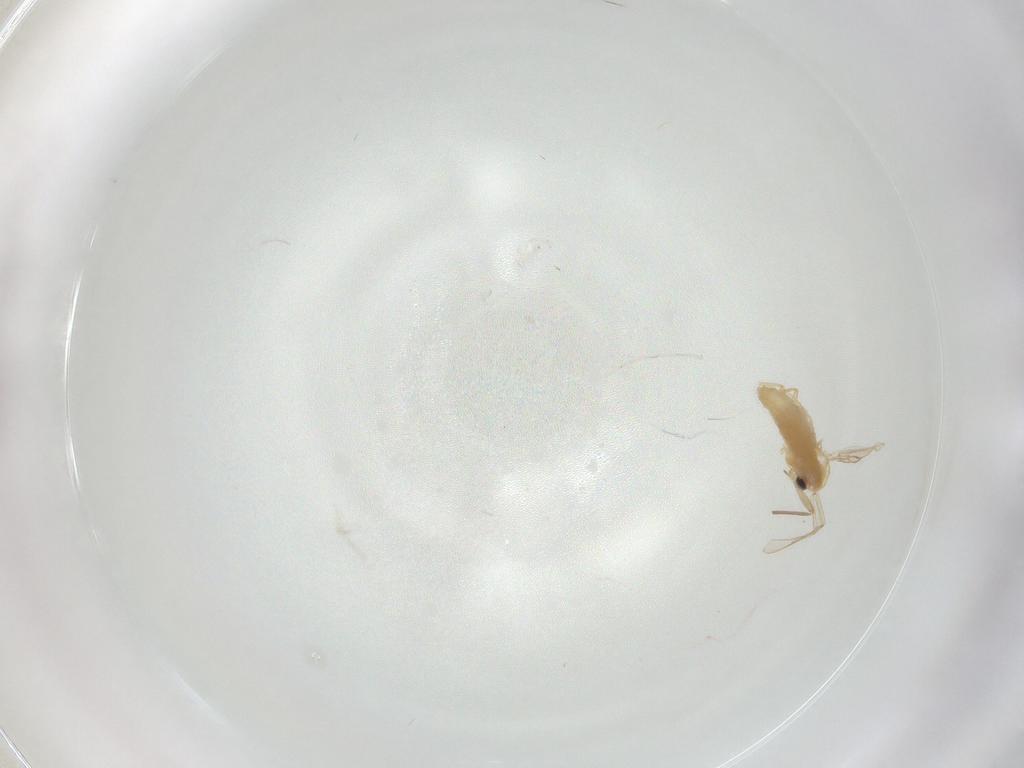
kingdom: Animalia
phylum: Arthropoda
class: Insecta
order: Diptera
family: Chironomidae
